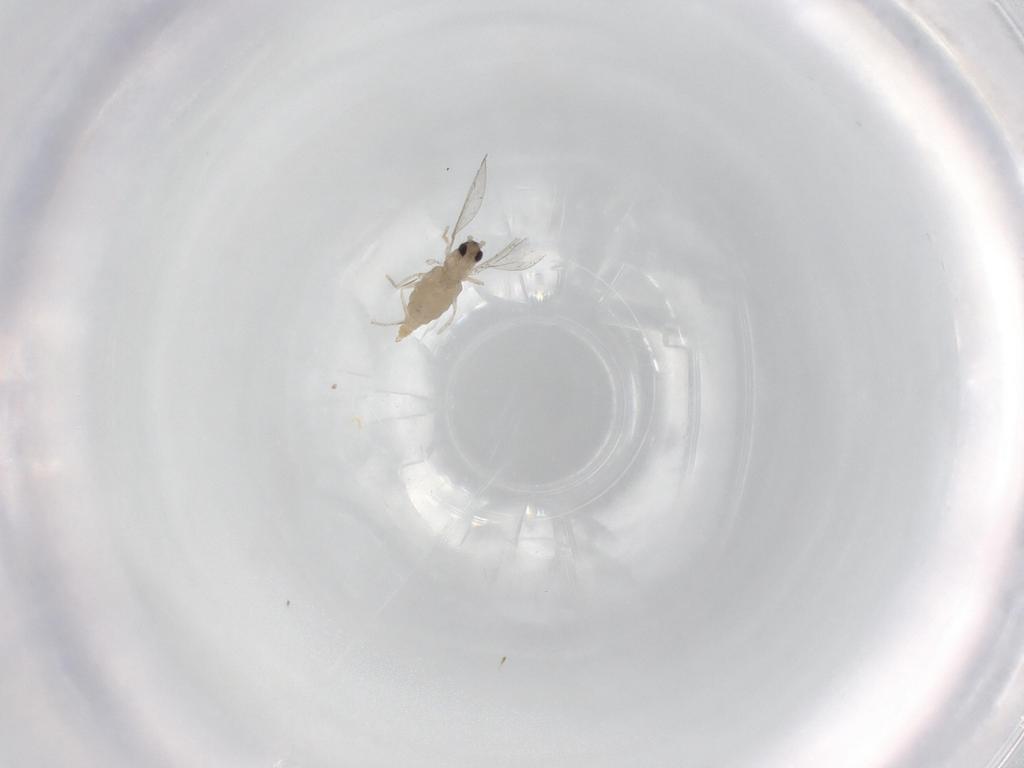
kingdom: Animalia
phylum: Arthropoda
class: Insecta
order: Diptera
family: Cecidomyiidae
